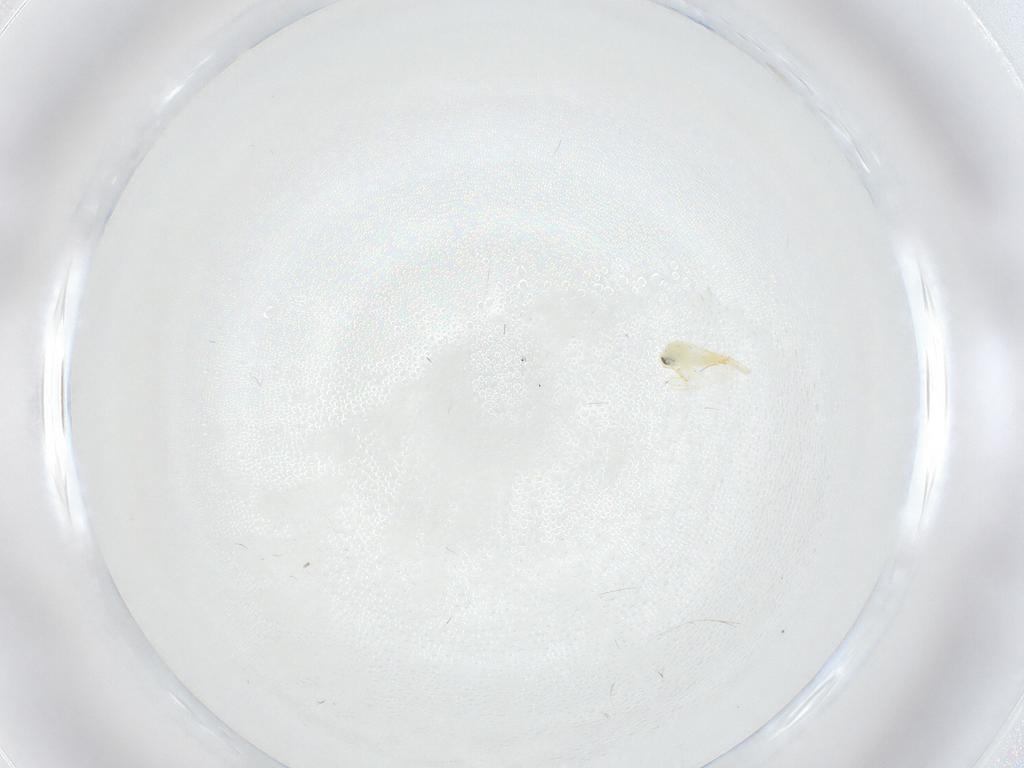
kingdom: Animalia
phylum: Arthropoda
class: Insecta
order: Hemiptera
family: Aleyrodidae
